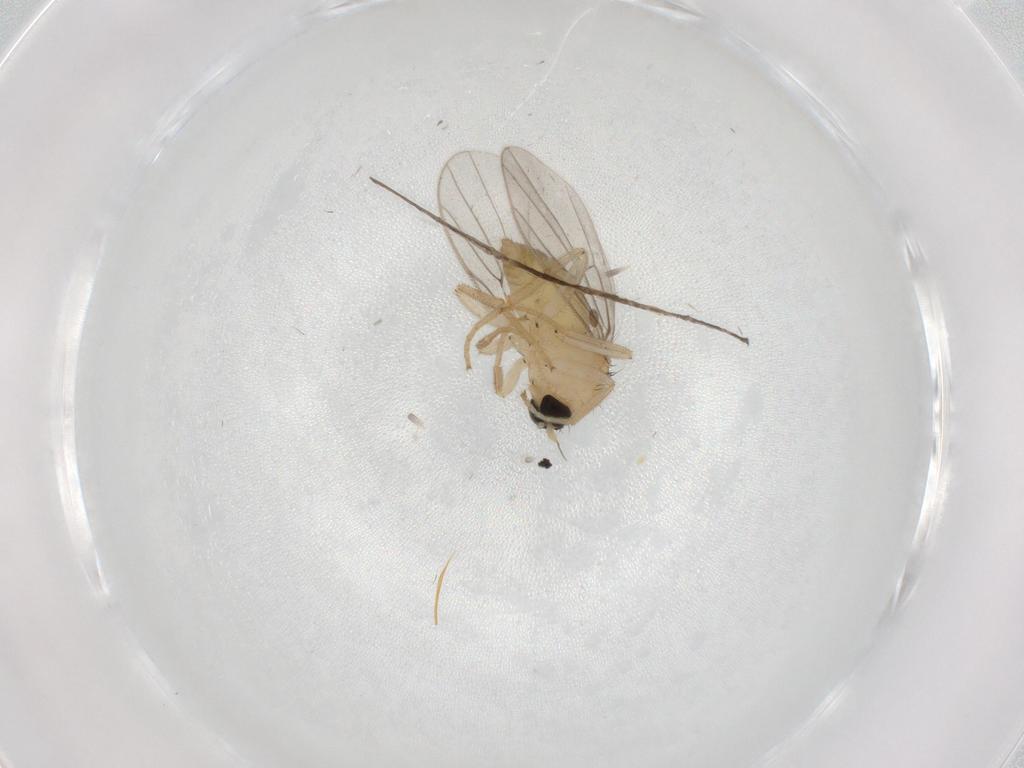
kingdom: Animalia
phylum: Arthropoda
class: Insecta
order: Diptera
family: Hybotidae
